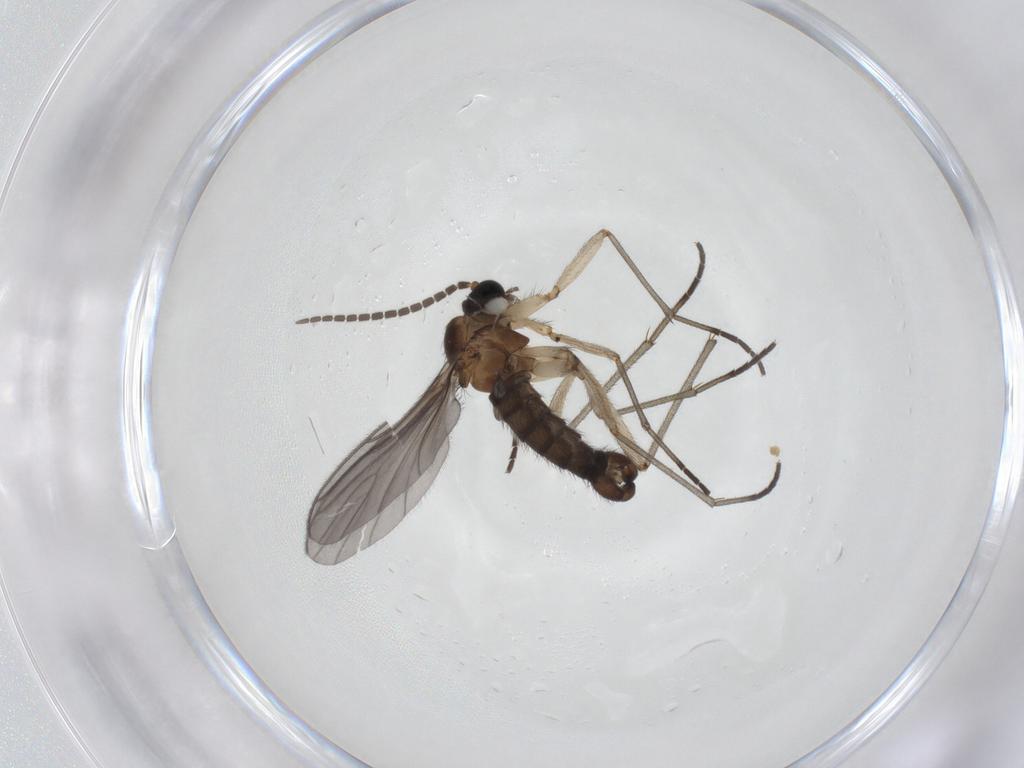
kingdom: Animalia
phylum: Arthropoda
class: Insecta
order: Diptera
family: Sciaridae
